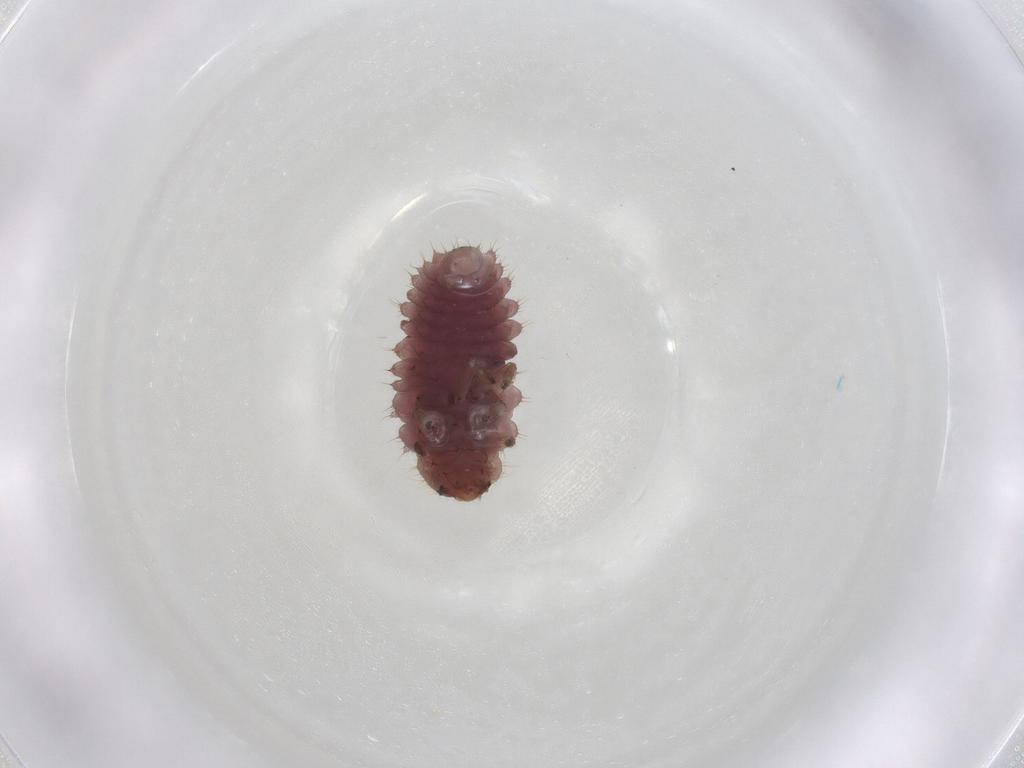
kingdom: Animalia
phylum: Arthropoda
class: Insecta
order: Coleoptera
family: Coccinellidae
